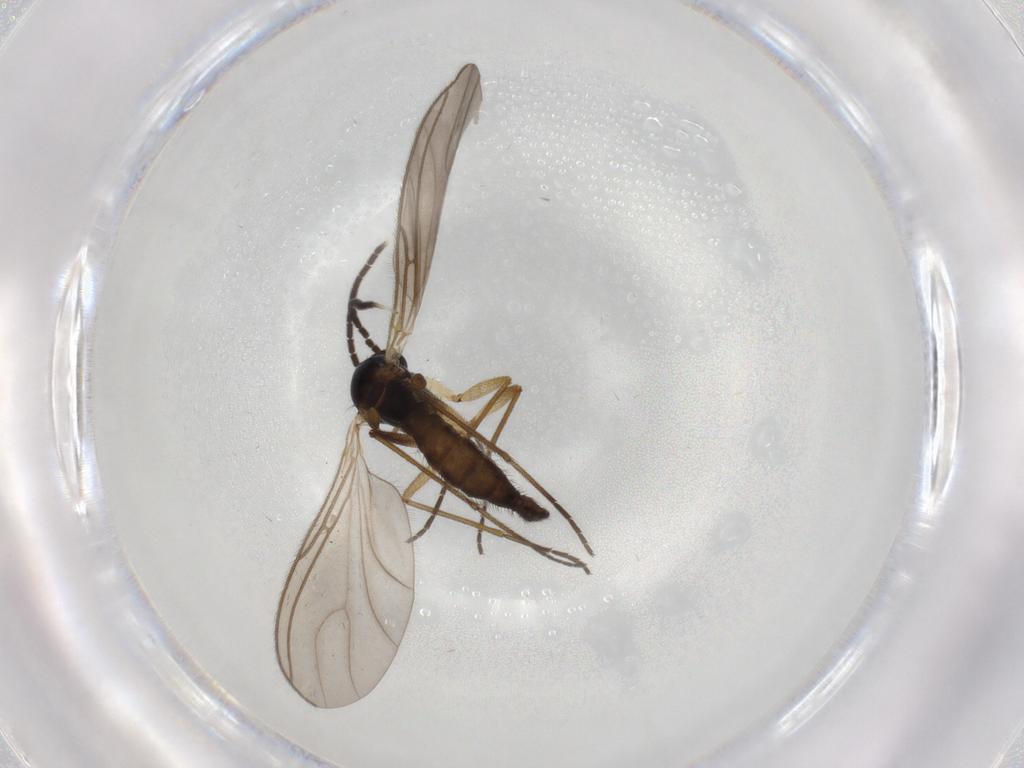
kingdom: Animalia
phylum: Arthropoda
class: Insecta
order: Diptera
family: Sciaridae
